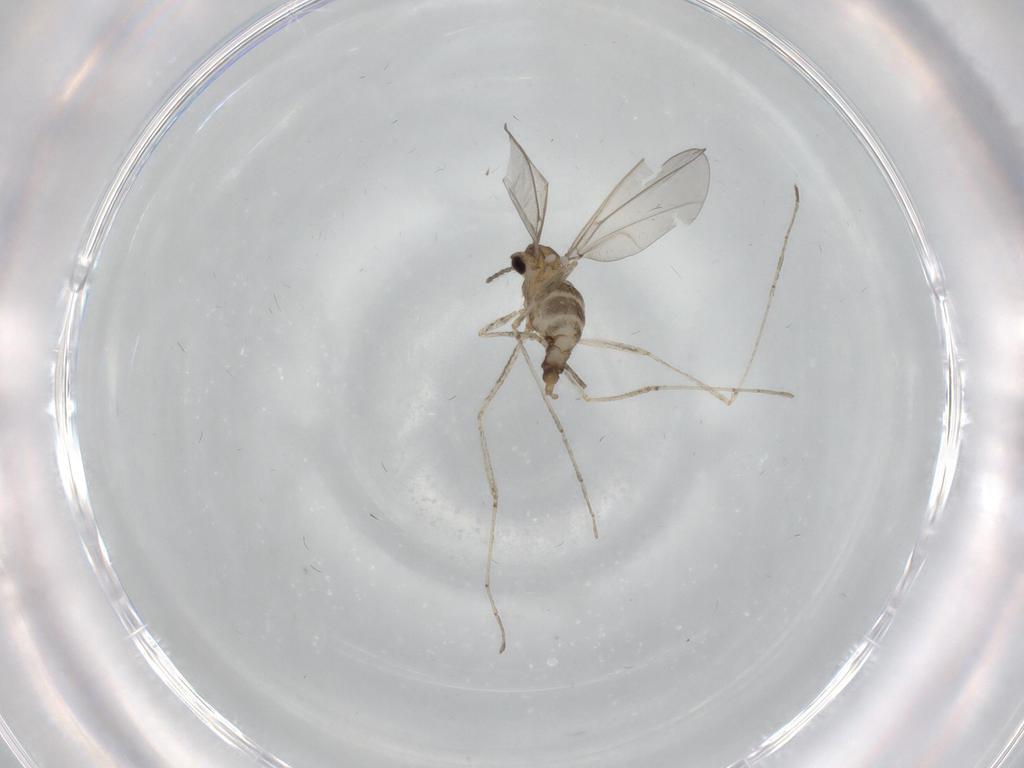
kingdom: Animalia
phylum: Arthropoda
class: Insecta
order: Diptera
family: Cecidomyiidae
